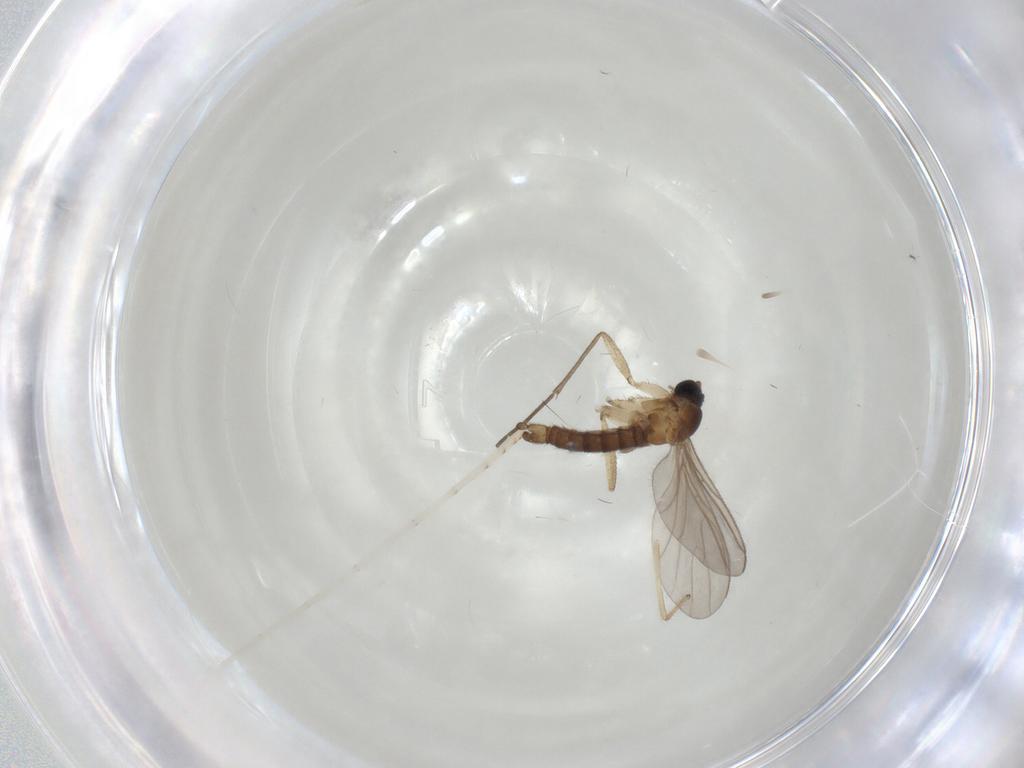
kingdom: Animalia
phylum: Arthropoda
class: Insecta
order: Diptera
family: Sciaridae
